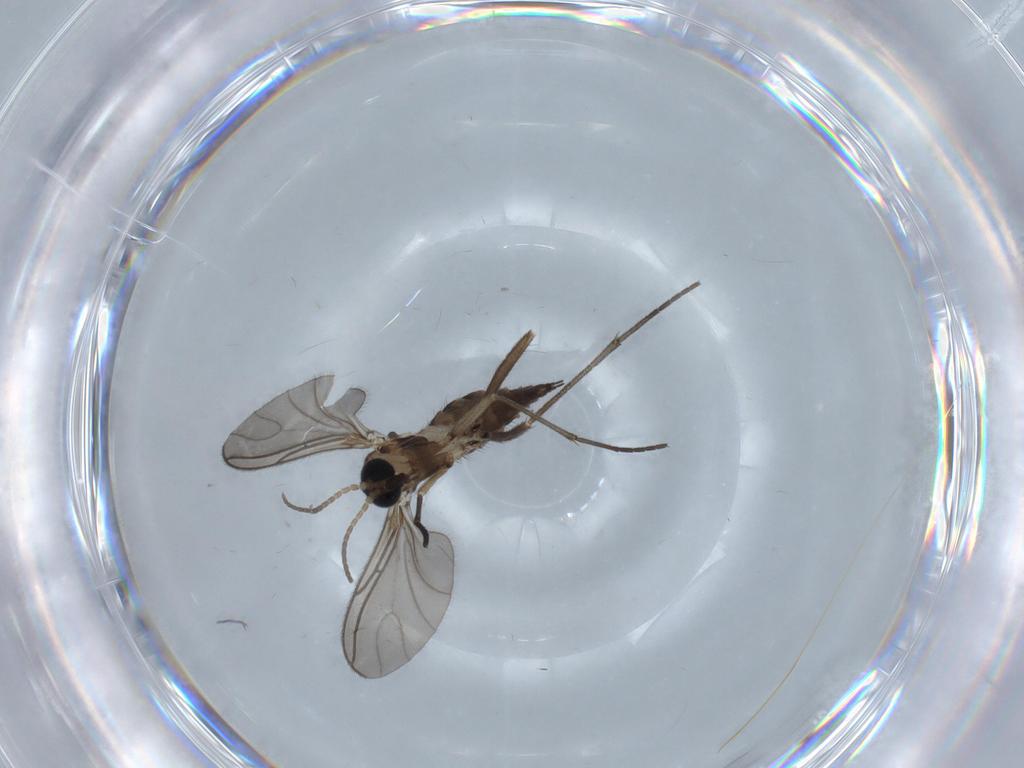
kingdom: Animalia
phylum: Arthropoda
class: Insecta
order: Diptera
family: Sciaridae
